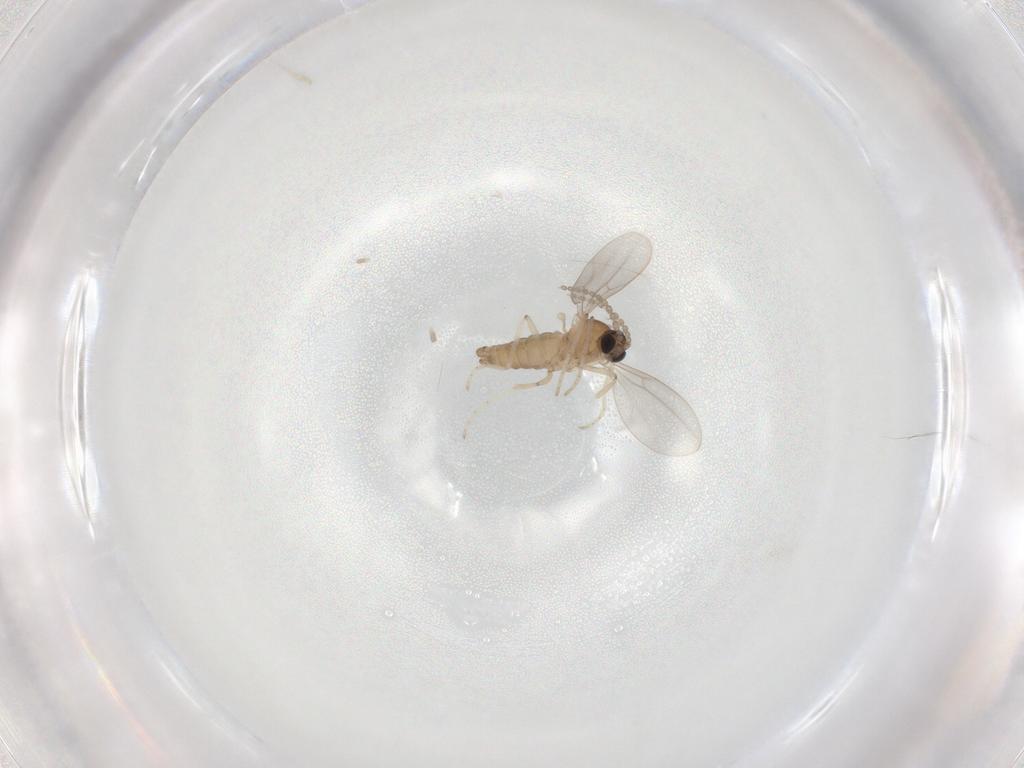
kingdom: Animalia
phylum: Arthropoda
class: Insecta
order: Diptera
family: Cecidomyiidae
